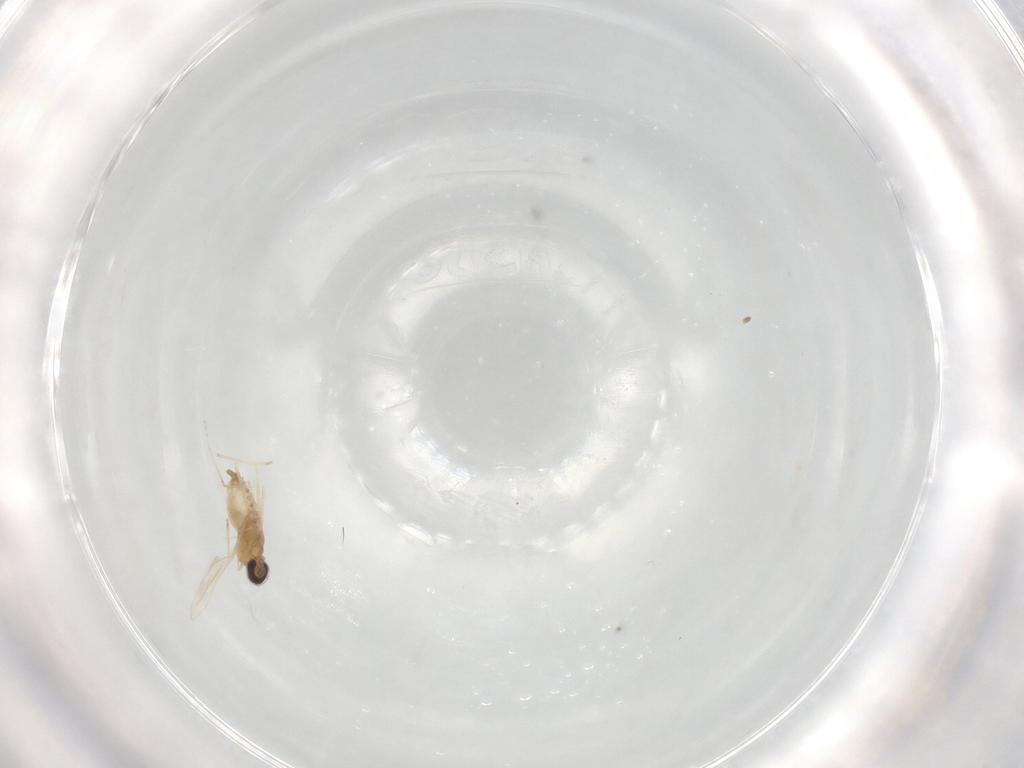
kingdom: Animalia
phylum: Arthropoda
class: Insecta
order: Diptera
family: Cecidomyiidae
